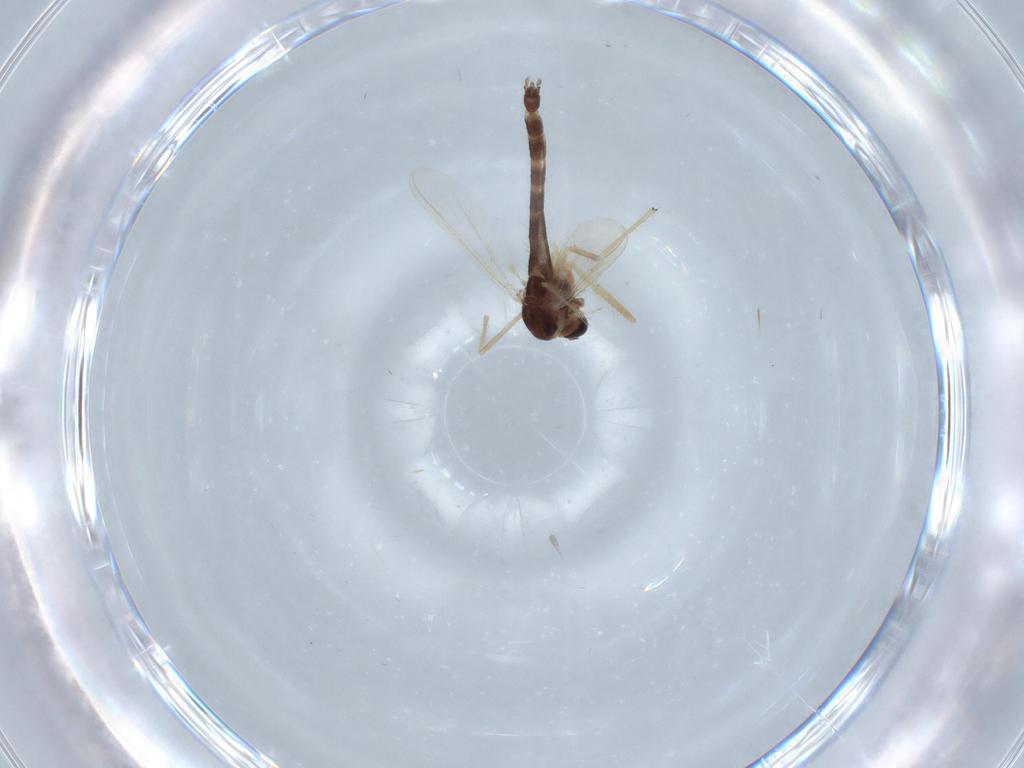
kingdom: Animalia
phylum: Arthropoda
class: Insecta
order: Diptera
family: Chironomidae
